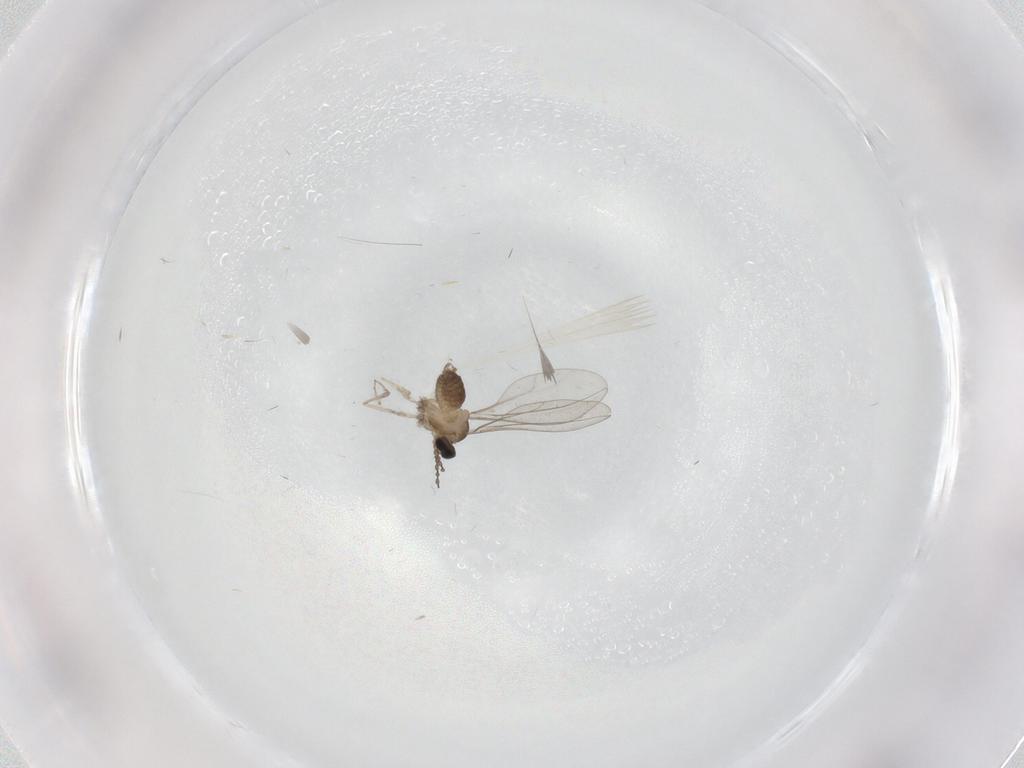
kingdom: Animalia
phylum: Arthropoda
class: Insecta
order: Diptera
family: Cecidomyiidae
